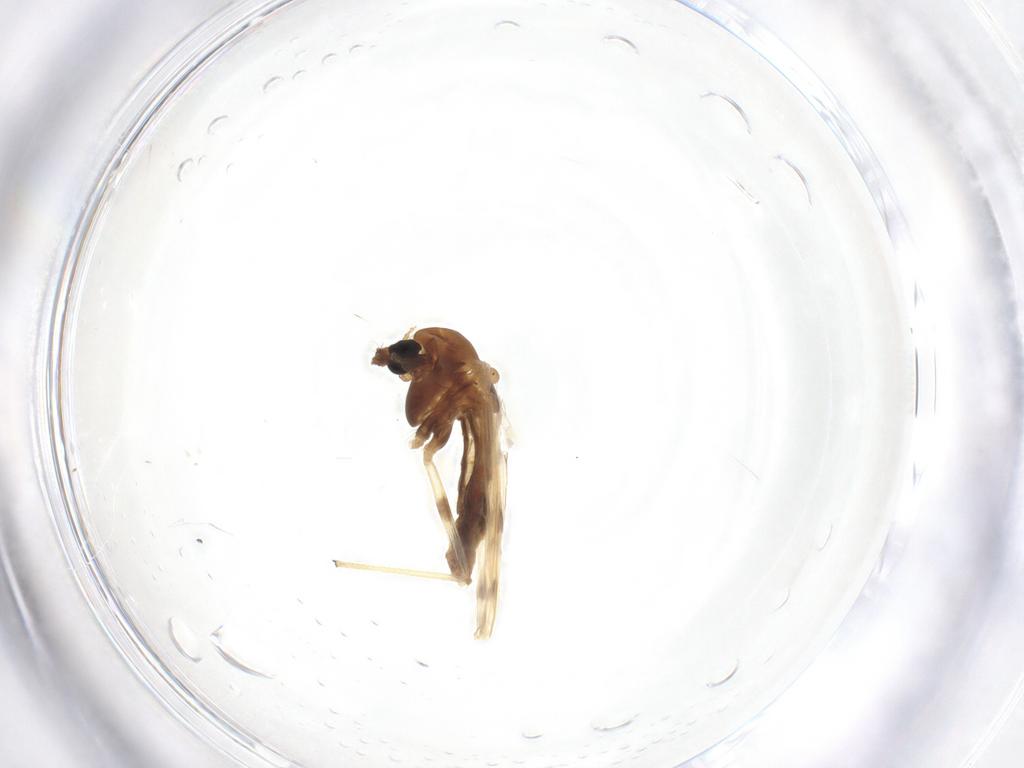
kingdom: Animalia
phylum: Arthropoda
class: Insecta
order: Diptera
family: Chironomidae
